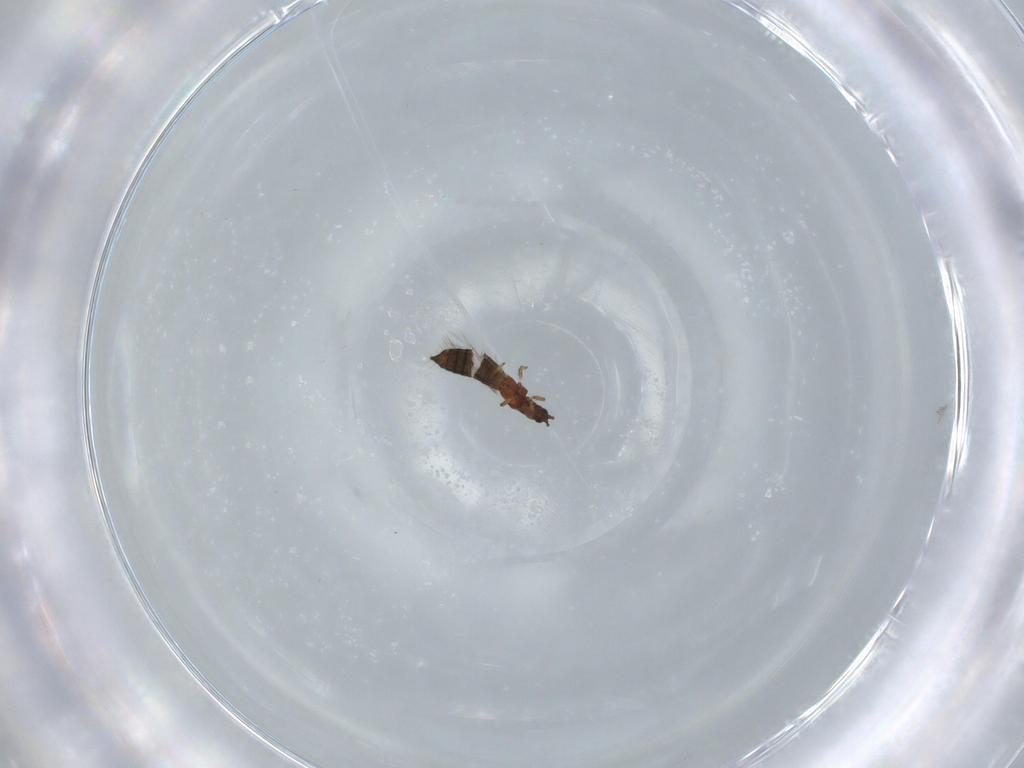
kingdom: Animalia
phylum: Arthropoda
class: Insecta
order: Thysanoptera
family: Thripidae
